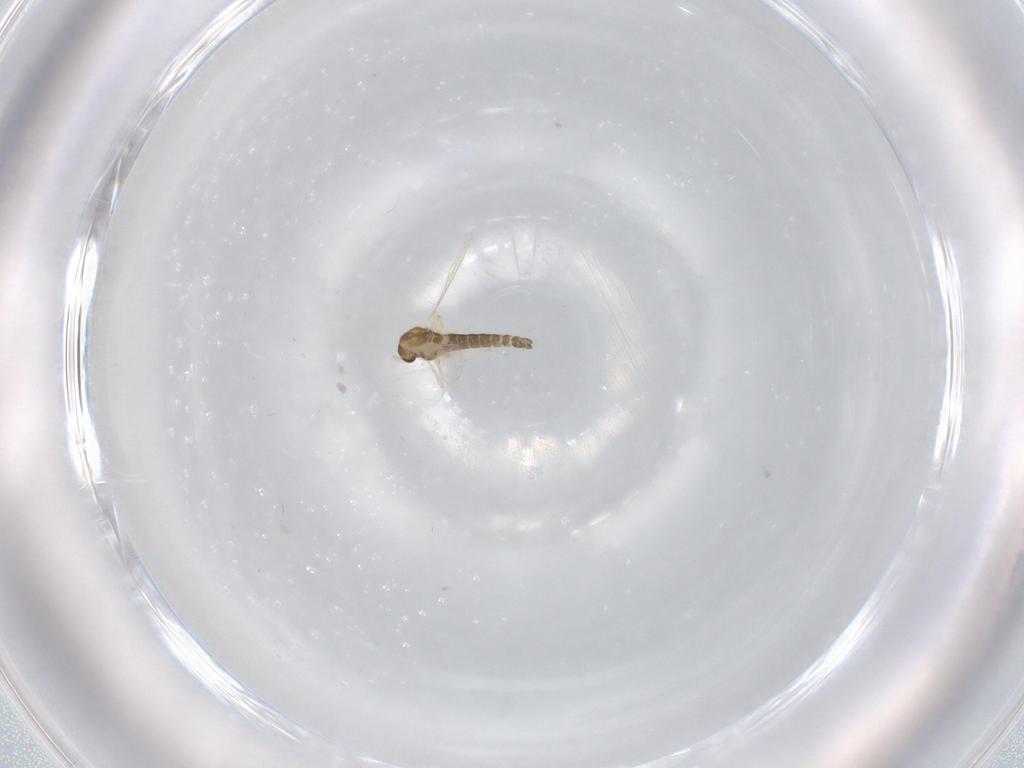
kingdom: Animalia
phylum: Arthropoda
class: Insecta
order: Diptera
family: Chironomidae
